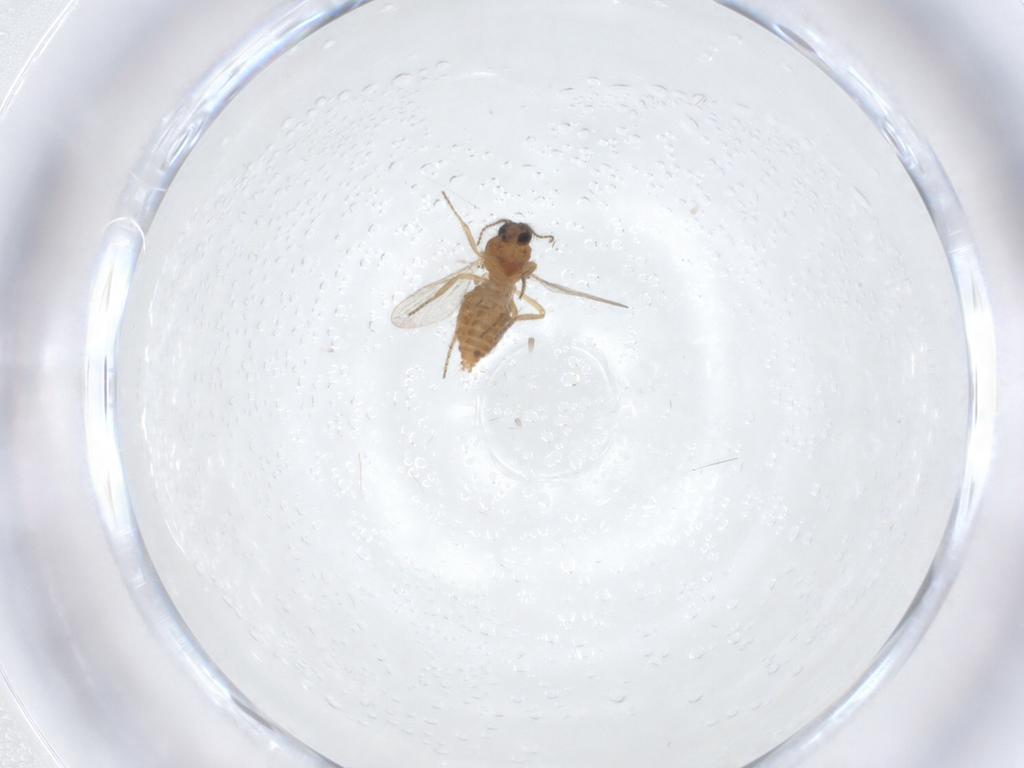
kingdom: Animalia
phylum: Arthropoda
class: Insecta
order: Diptera
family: Ceratopogonidae
